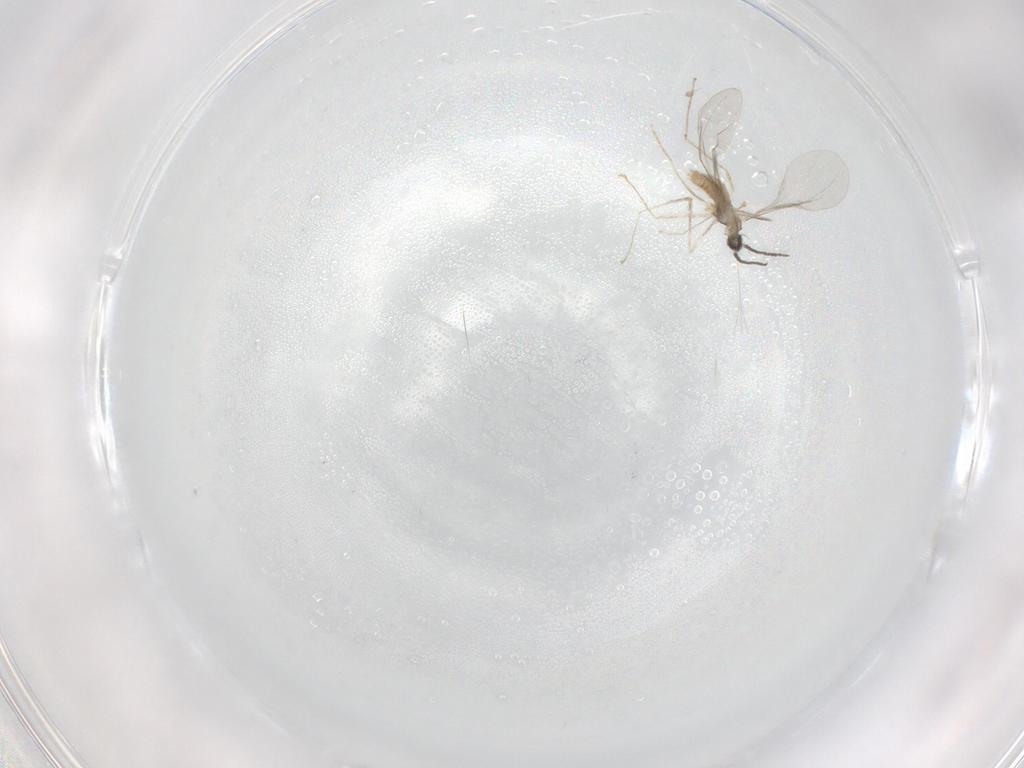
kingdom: Animalia
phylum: Arthropoda
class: Insecta
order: Diptera
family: Cecidomyiidae
